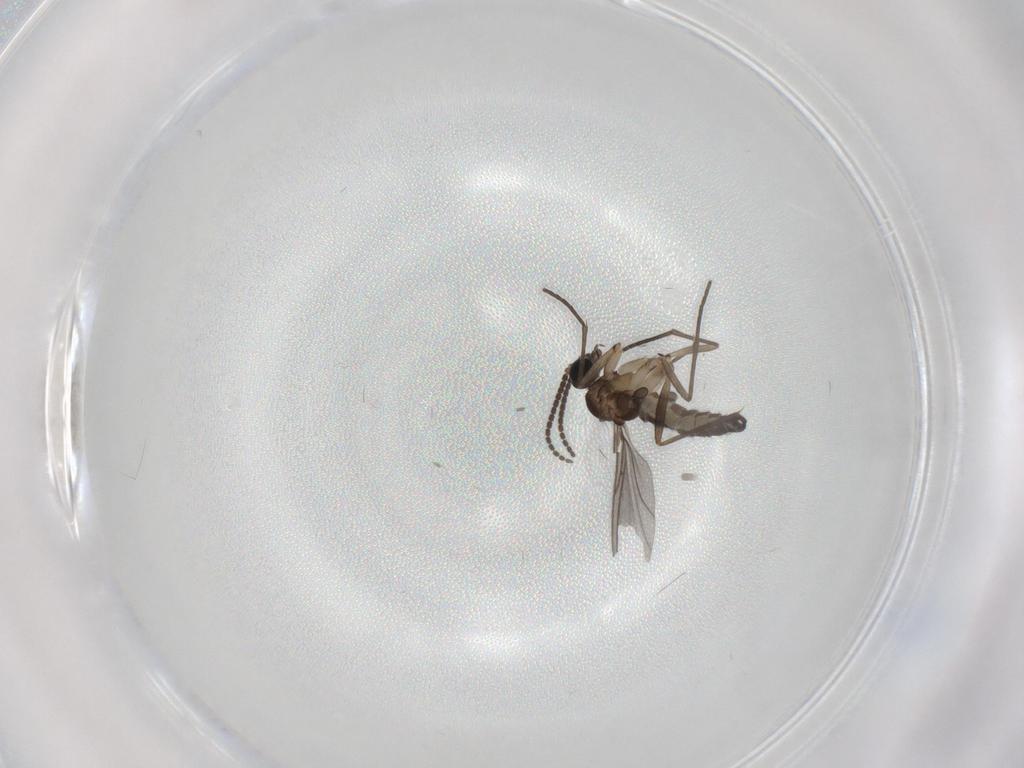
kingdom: Animalia
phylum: Arthropoda
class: Insecta
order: Diptera
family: Sciaridae
